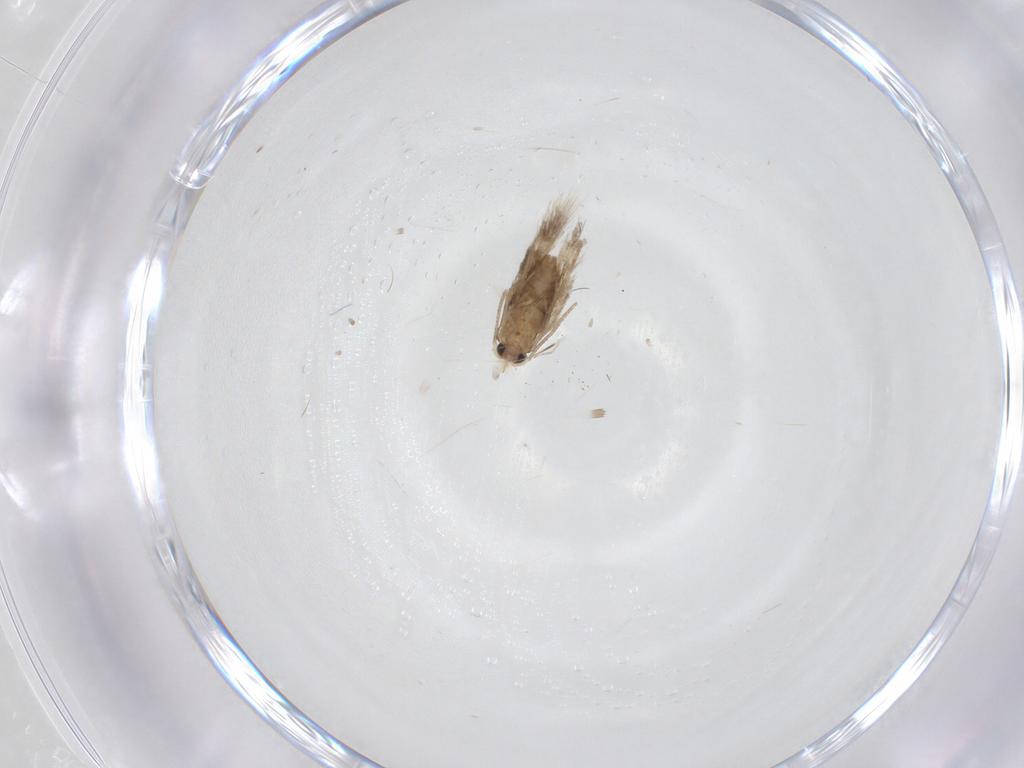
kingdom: Animalia
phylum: Arthropoda
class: Insecta
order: Lepidoptera
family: Nepticulidae
